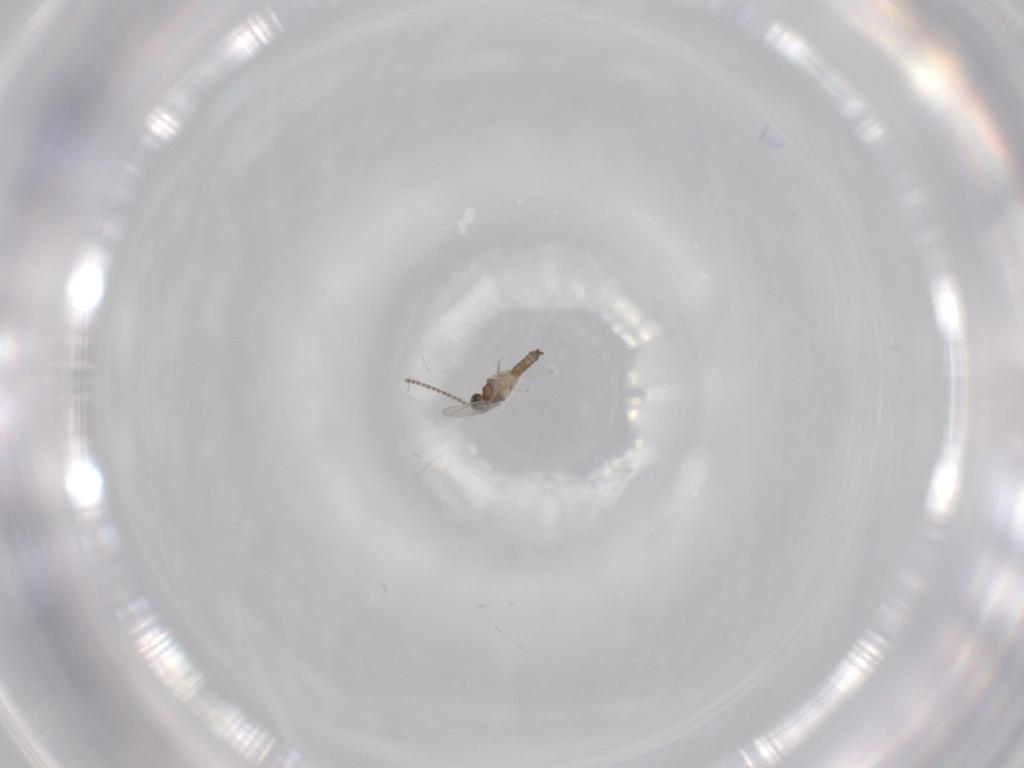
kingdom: Animalia
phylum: Arthropoda
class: Insecta
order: Diptera
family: Cecidomyiidae
